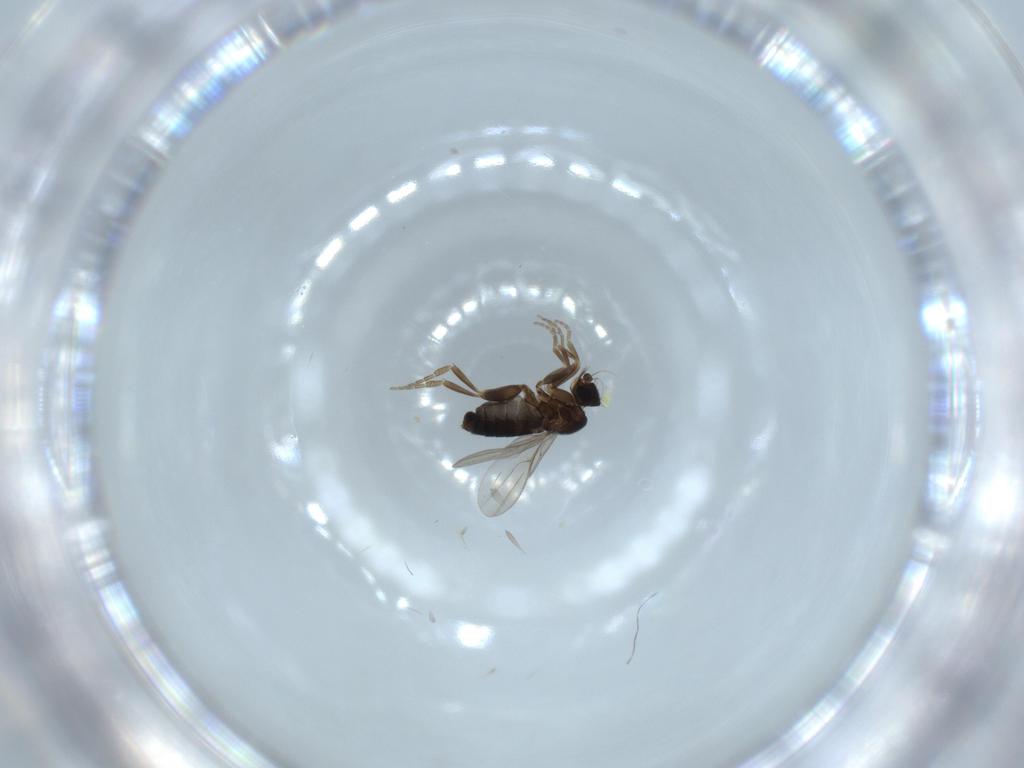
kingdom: Animalia
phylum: Arthropoda
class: Insecta
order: Diptera
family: Phoridae
